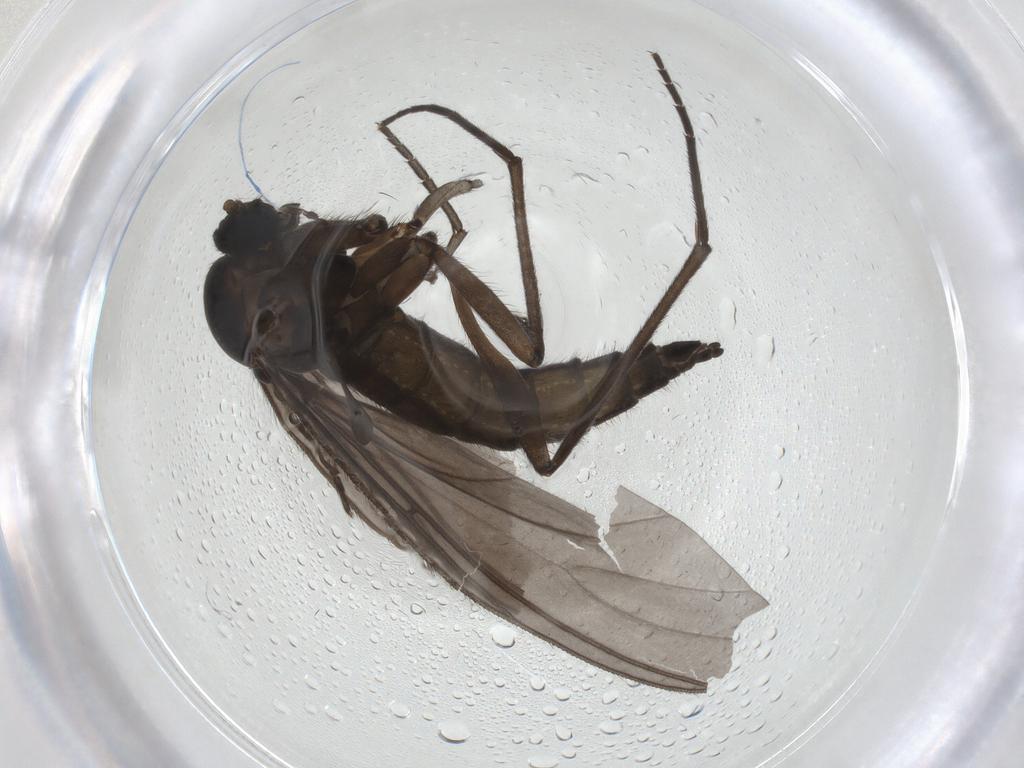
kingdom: Animalia
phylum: Arthropoda
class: Insecta
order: Diptera
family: Sciaridae
